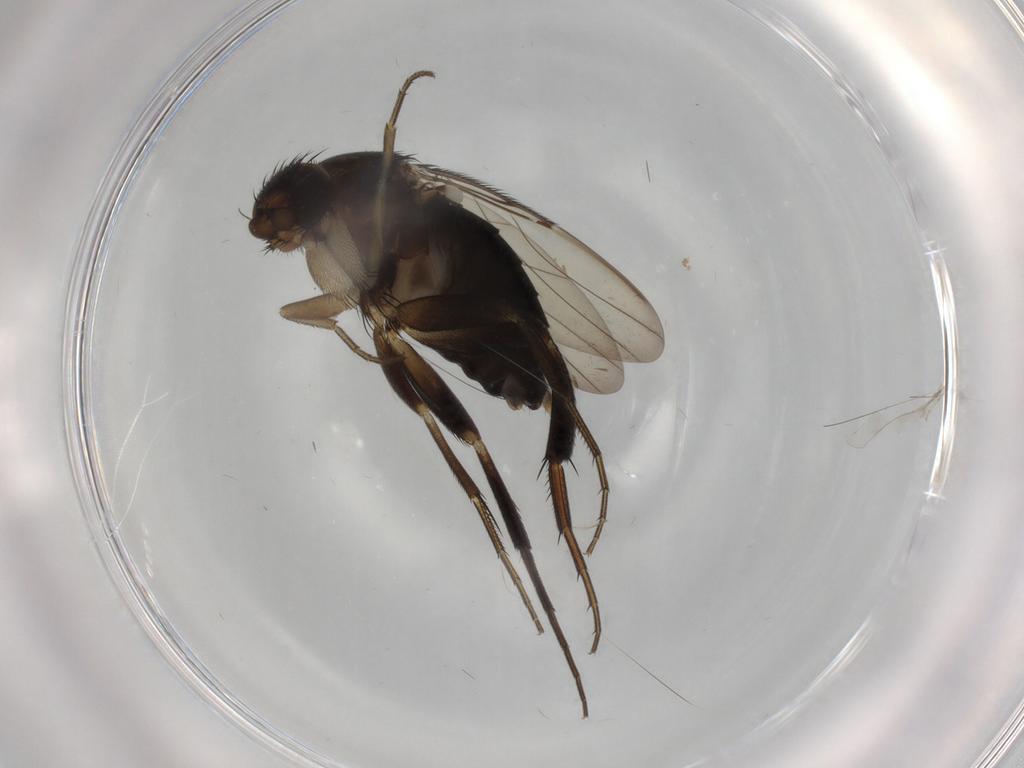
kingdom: Animalia
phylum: Arthropoda
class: Insecta
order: Diptera
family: Phoridae
